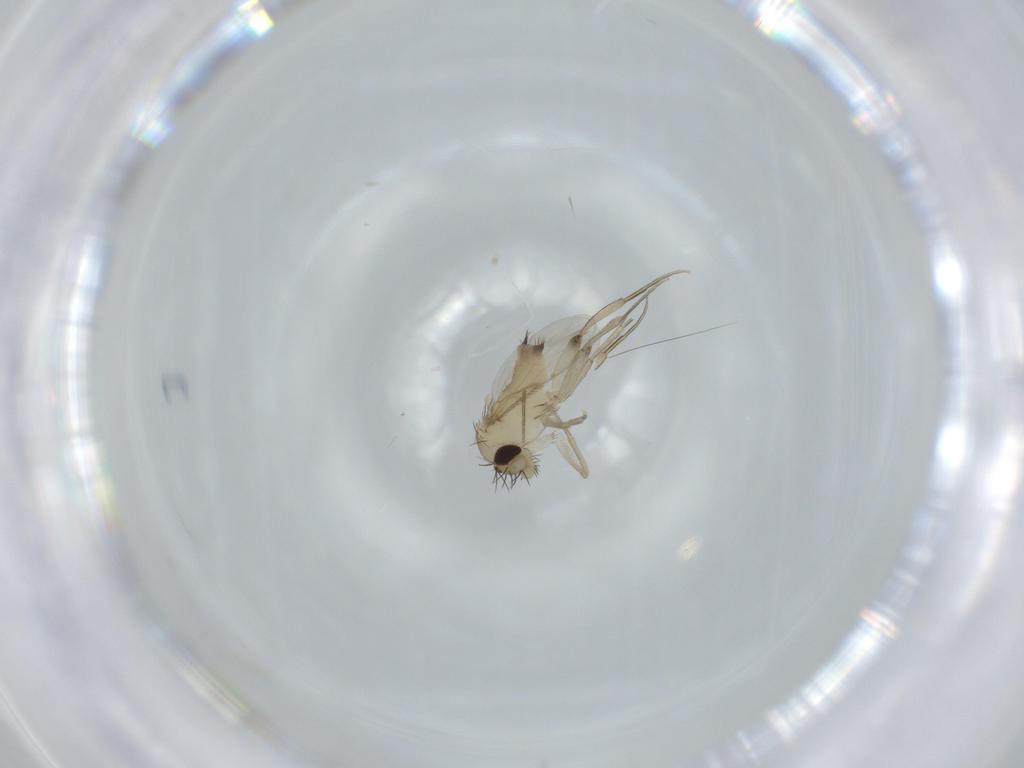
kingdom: Animalia
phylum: Arthropoda
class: Insecta
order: Diptera
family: Phoridae
